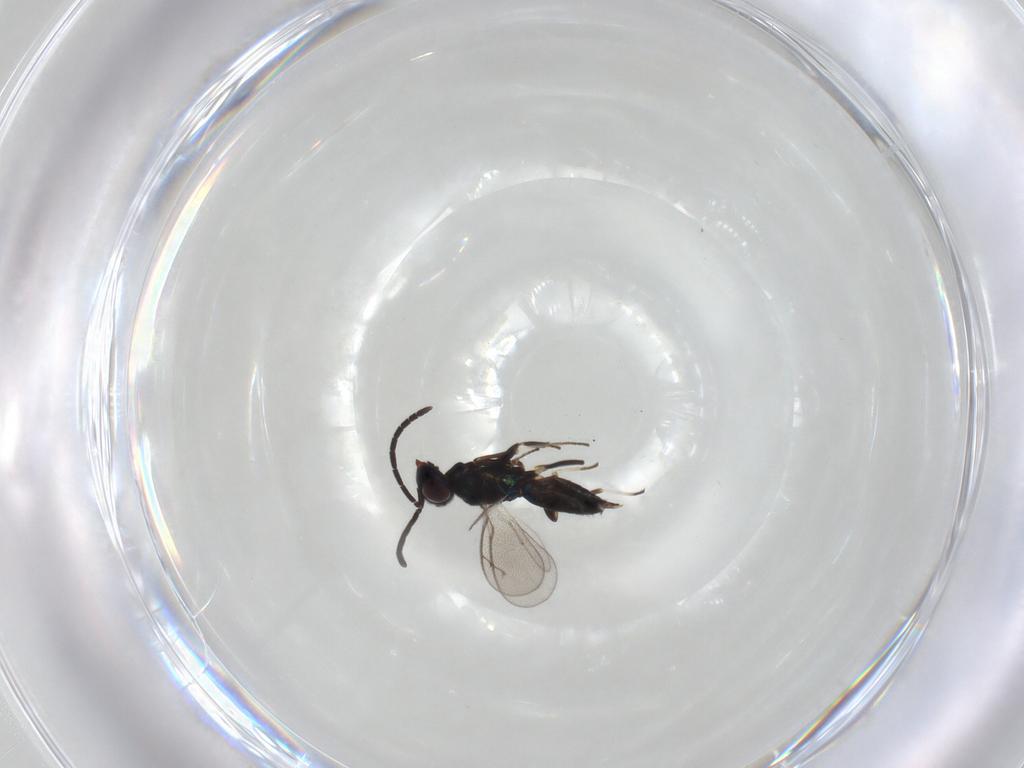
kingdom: Animalia
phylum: Arthropoda
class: Insecta
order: Hymenoptera
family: Eupelmidae
